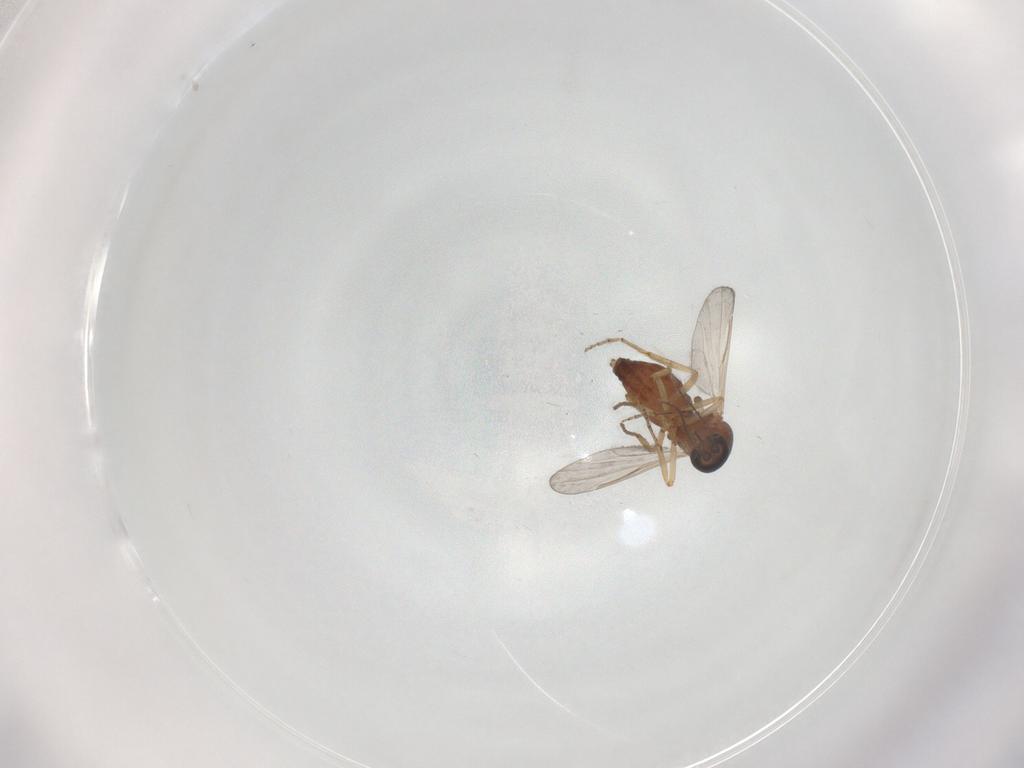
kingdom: Animalia
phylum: Arthropoda
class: Insecta
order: Diptera
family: Ceratopogonidae
